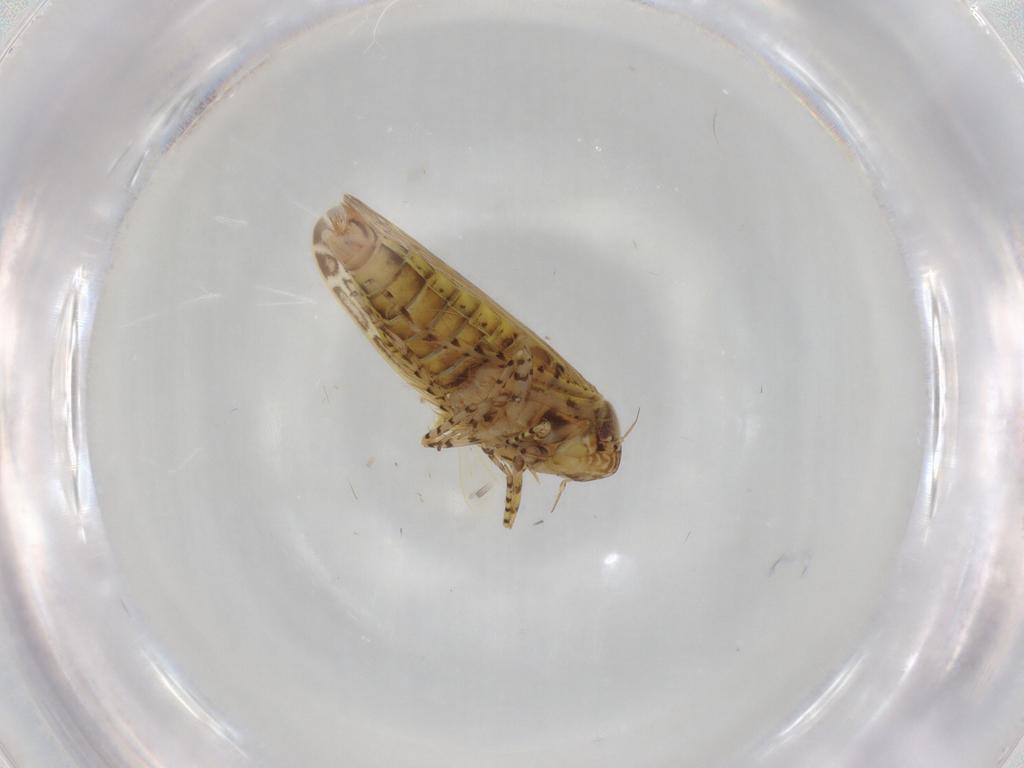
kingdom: Animalia
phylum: Arthropoda
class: Insecta
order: Hemiptera
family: Cicadellidae
